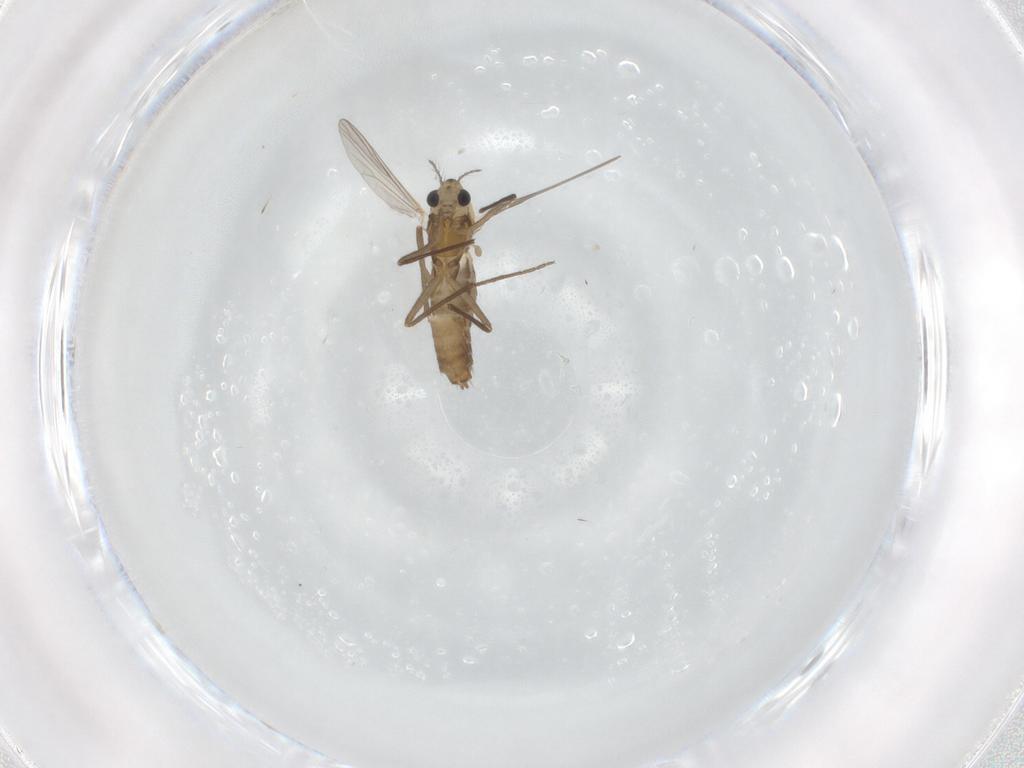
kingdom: Animalia
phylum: Arthropoda
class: Insecta
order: Diptera
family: Chironomidae
